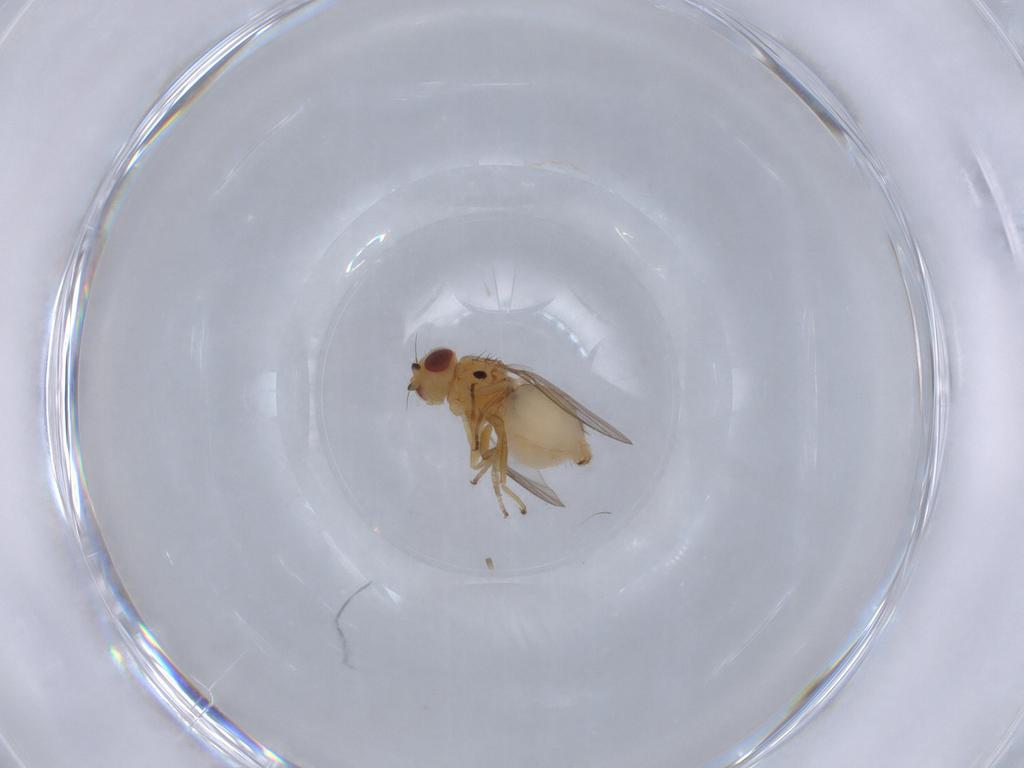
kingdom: Animalia
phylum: Arthropoda
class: Insecta
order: Diptera
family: Chloropidae
